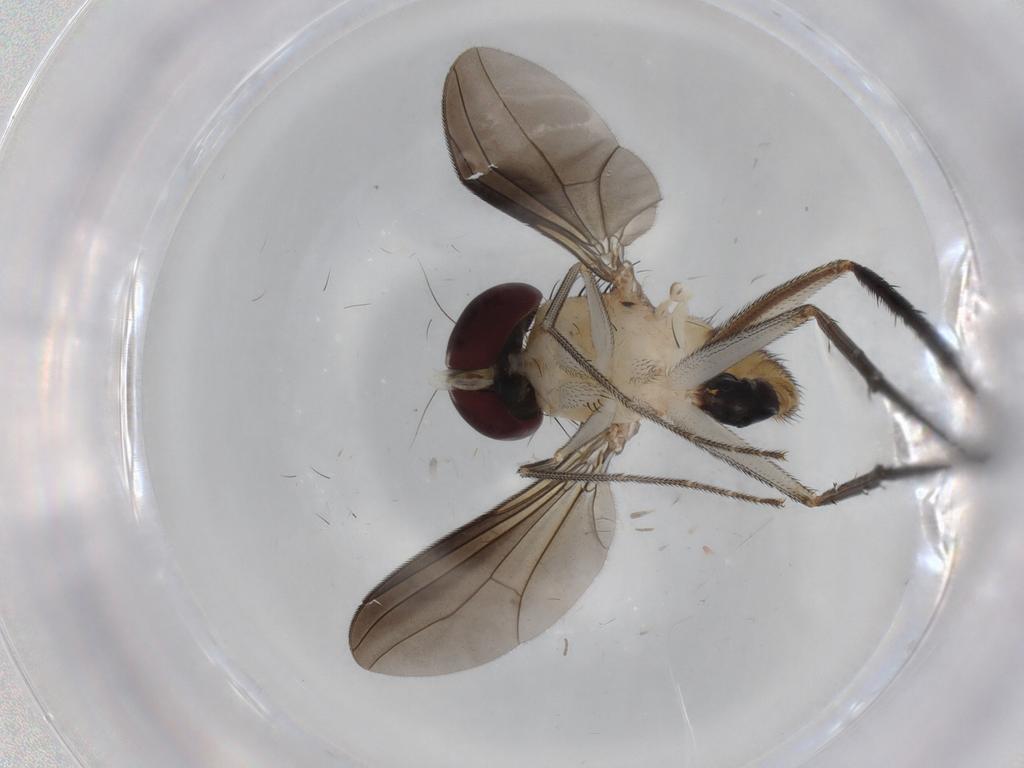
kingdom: Animalia
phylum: Arthropoda
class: Insecta
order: Diptera
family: Dolichopodidae
